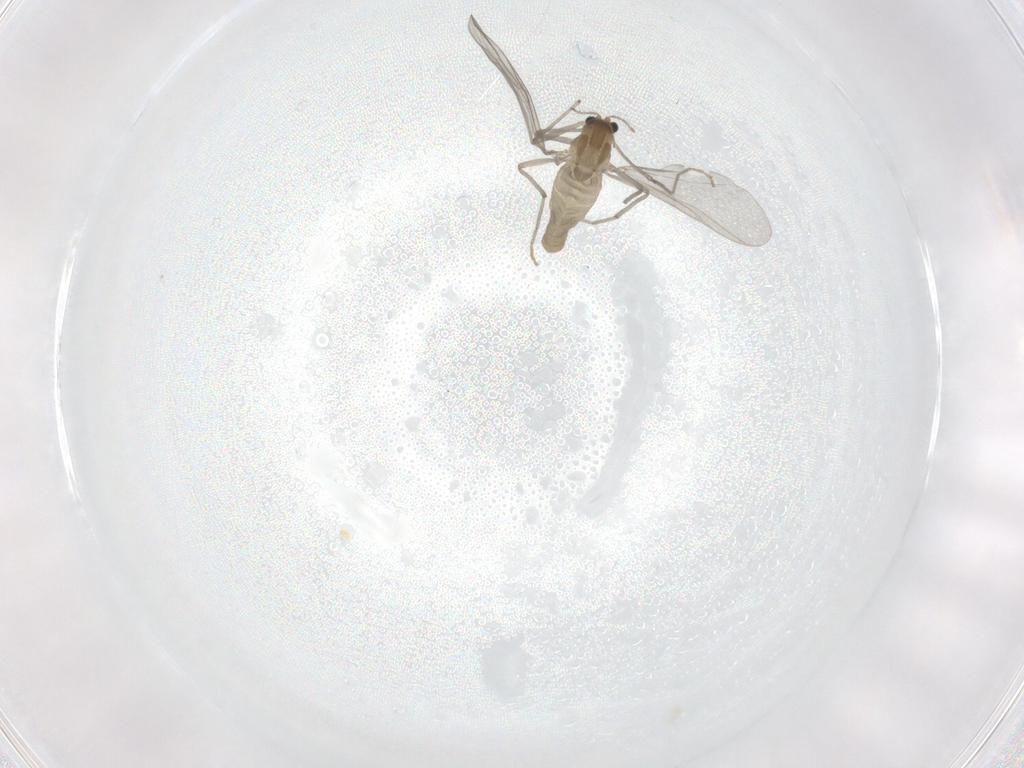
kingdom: Animalia
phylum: Arthropoda
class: Insecta
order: Diptera
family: Chironomidae
